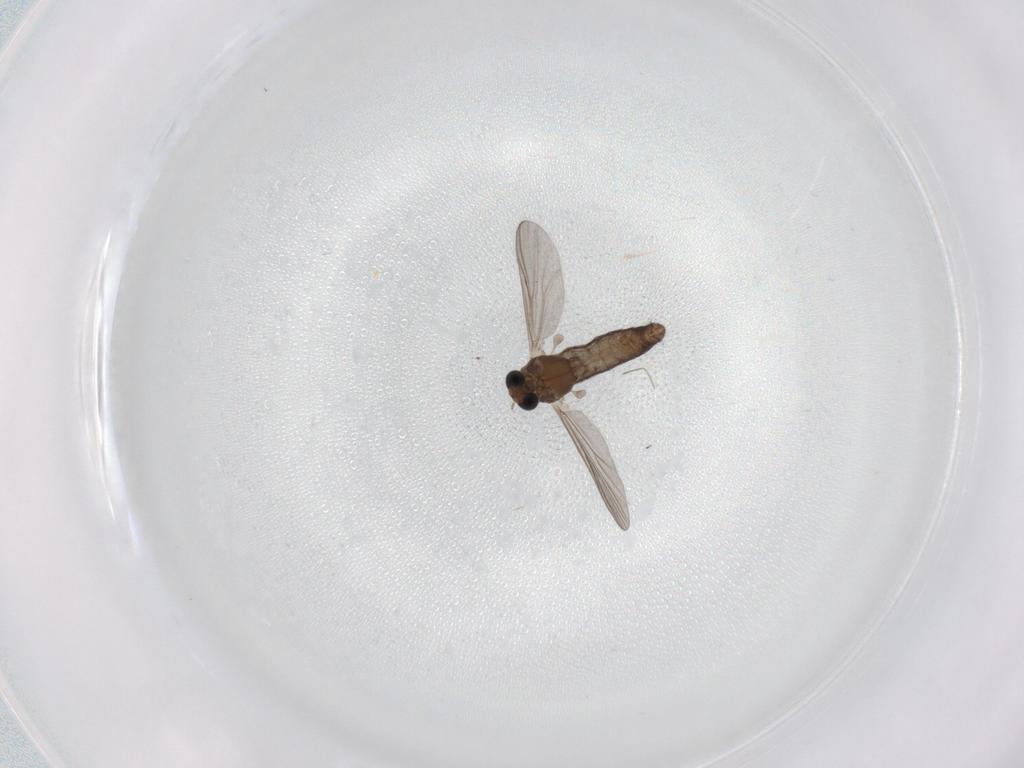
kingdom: Animalia
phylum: Arthropoda
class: Insecta
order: Diptera
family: Chironomidae
